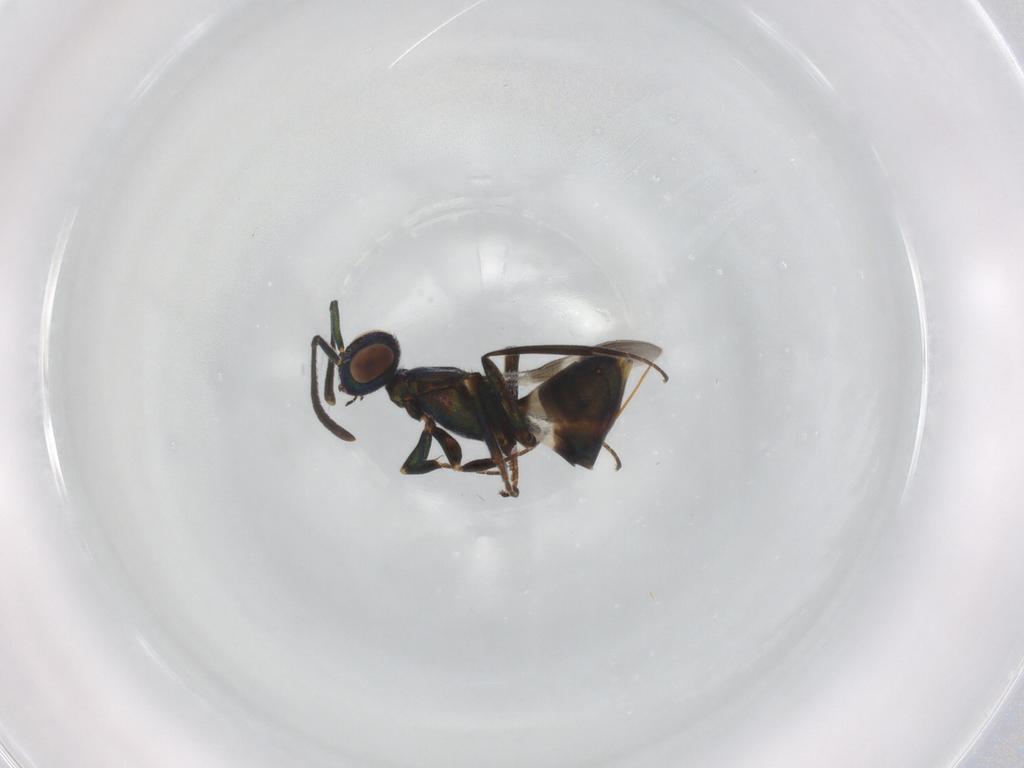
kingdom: Animalia
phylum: Arthropoda
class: Insecta
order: Hymenoptera
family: Eupelmidae
